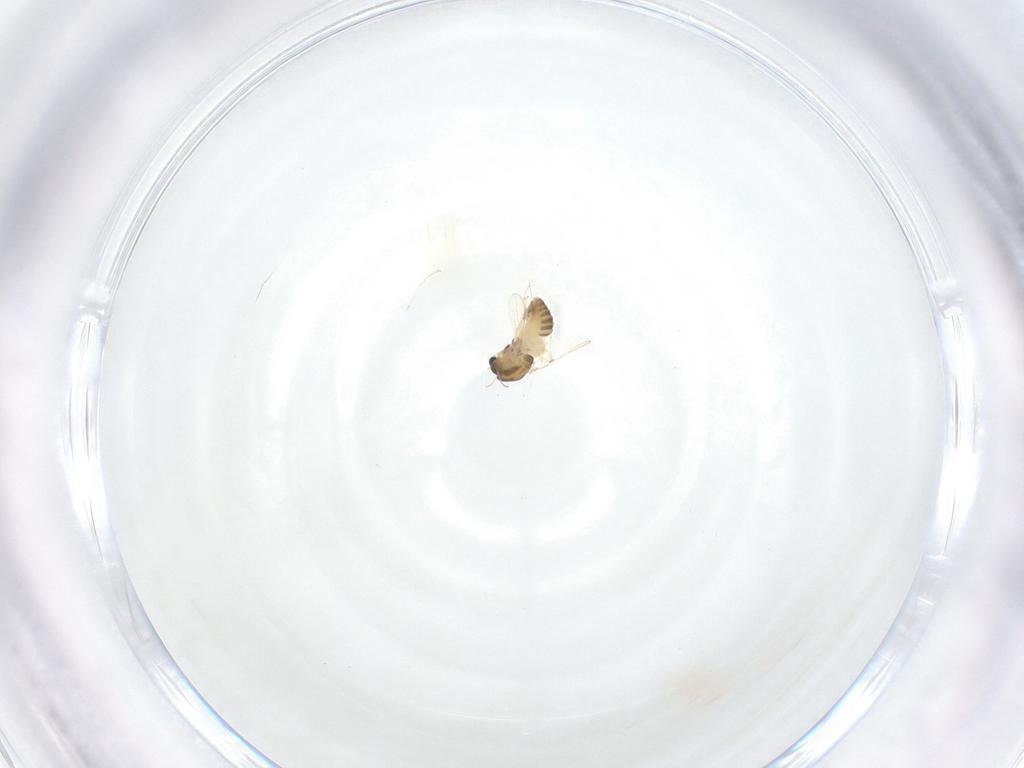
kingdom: Animalia
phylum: Arthropoda
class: Insecta
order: Diptera
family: Chironomidae
